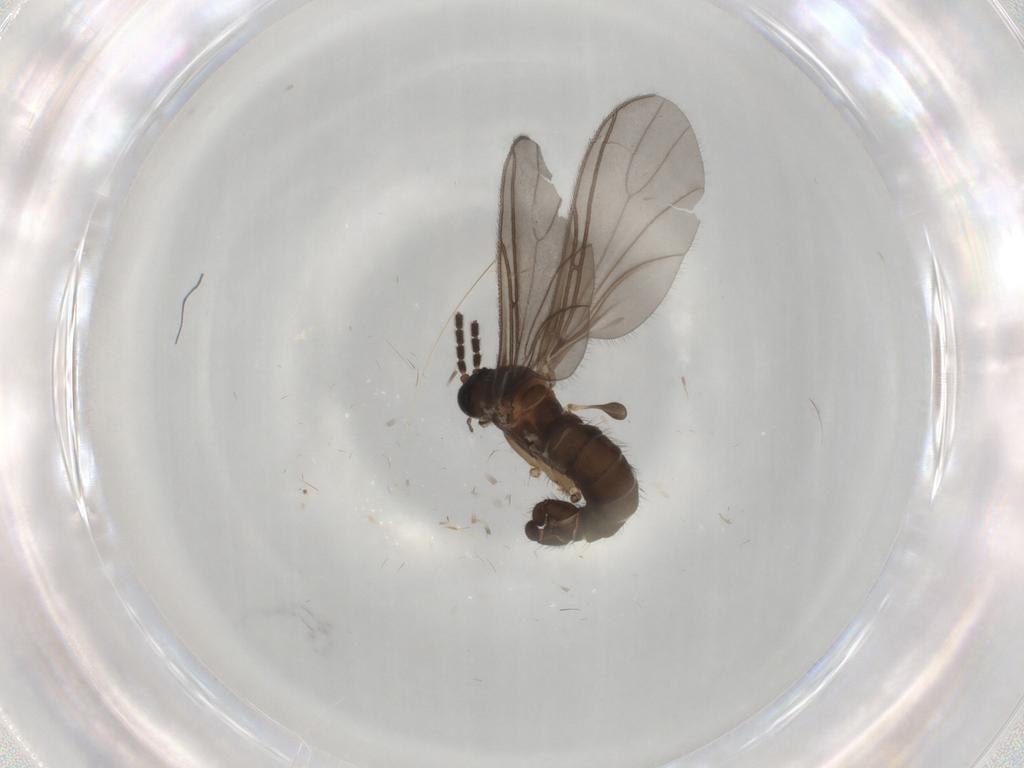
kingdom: Animalia
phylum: Arthropoda
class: Insecta
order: Diptera
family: Sciaridae
